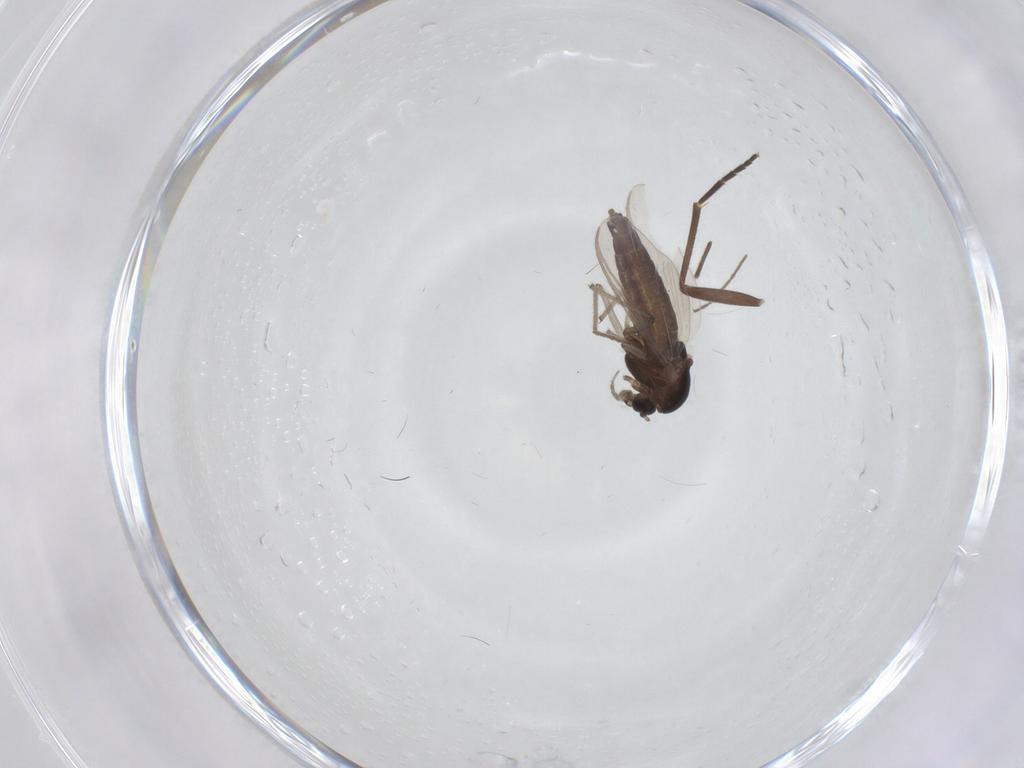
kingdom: Animalia
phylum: Arthropoda
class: Insecta
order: Diptera
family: Sciaridae
